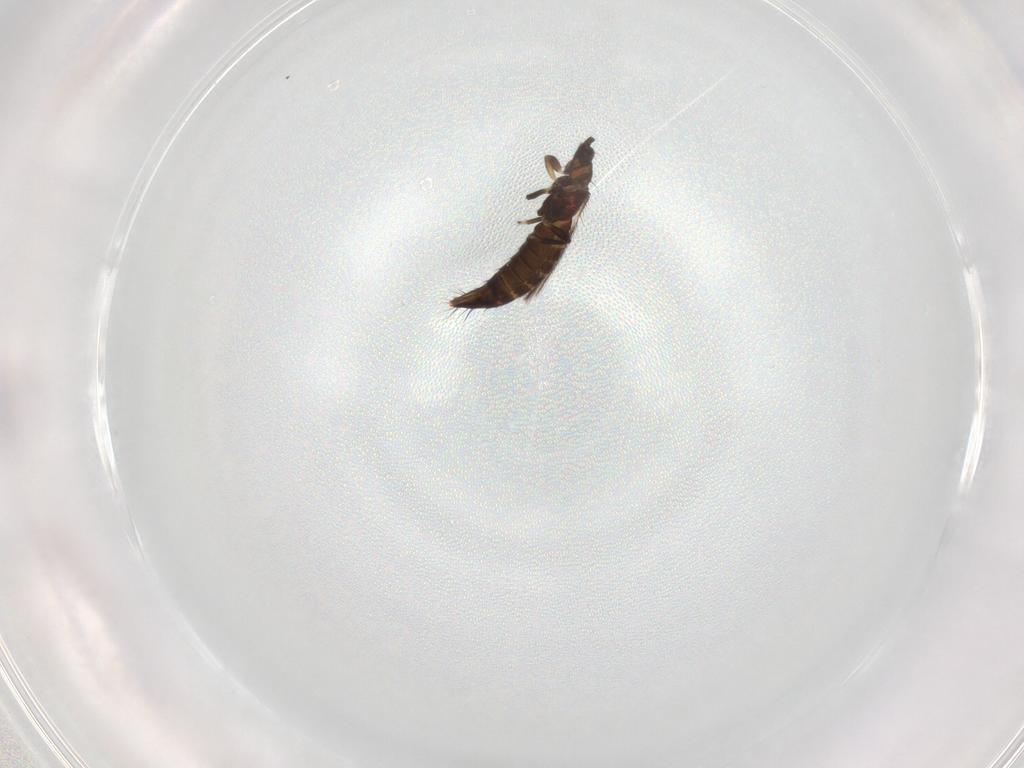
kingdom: Animalia
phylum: Arthropoda
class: Insecta
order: Thysanoptera
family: Thripidae
